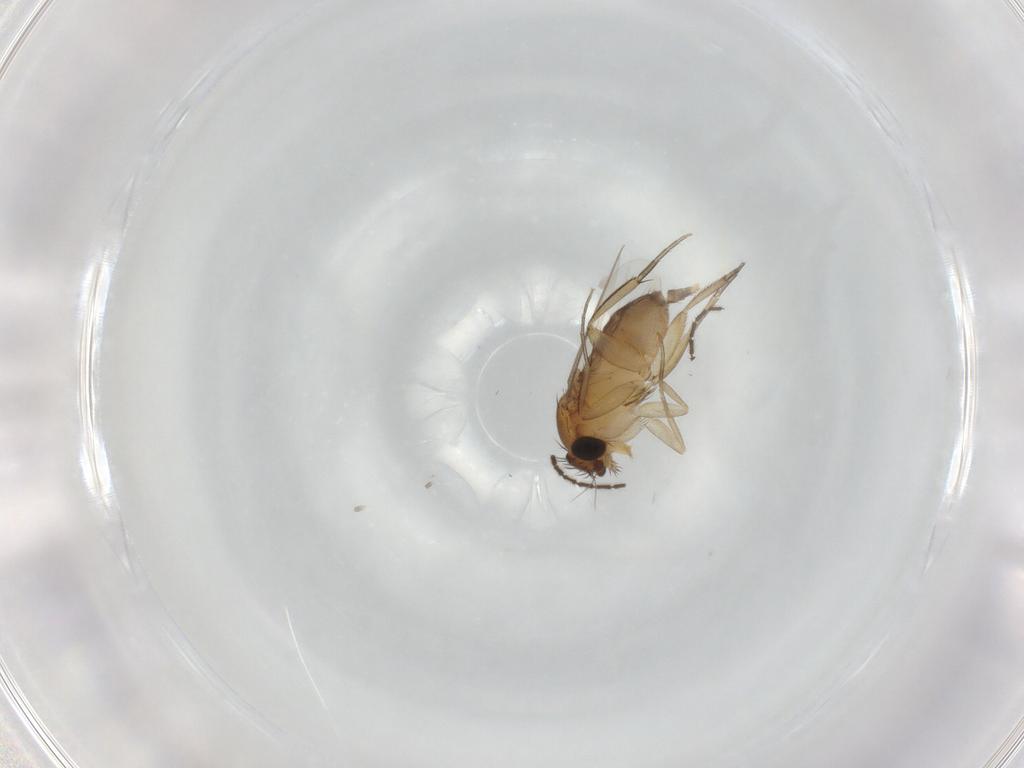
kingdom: Animalia
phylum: Arthropoda
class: Insecta
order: Diptera
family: Phoridae
